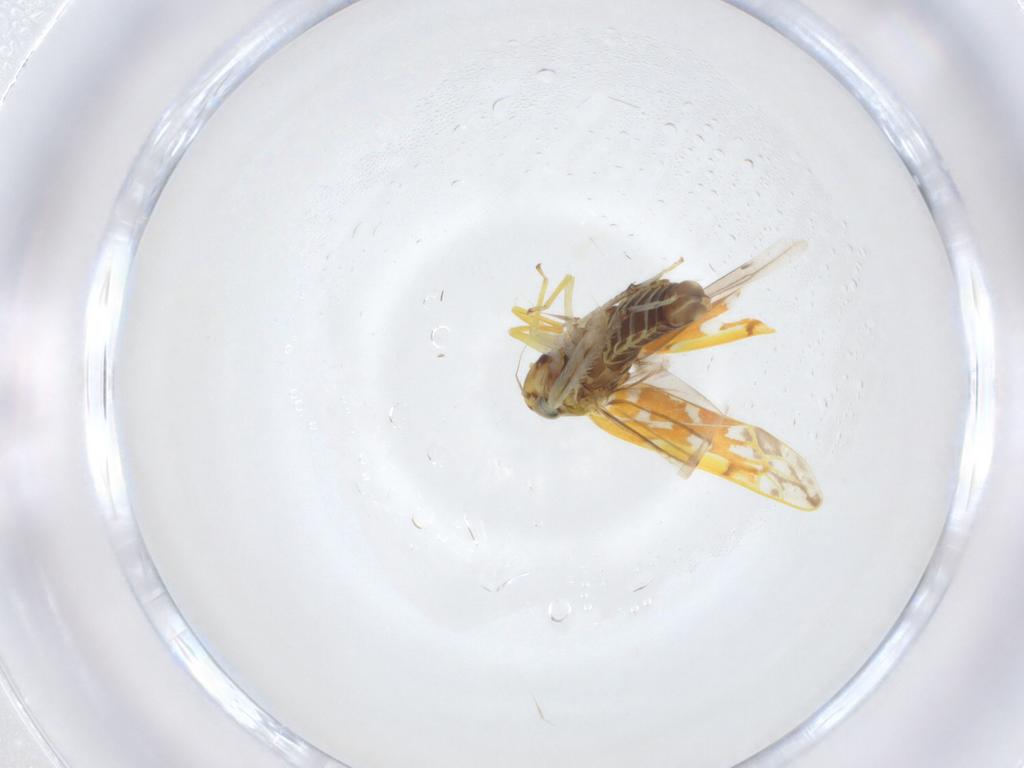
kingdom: Animalia
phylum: Arthropoda
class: Insecta
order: Hemiptera
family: Cicadellidae
